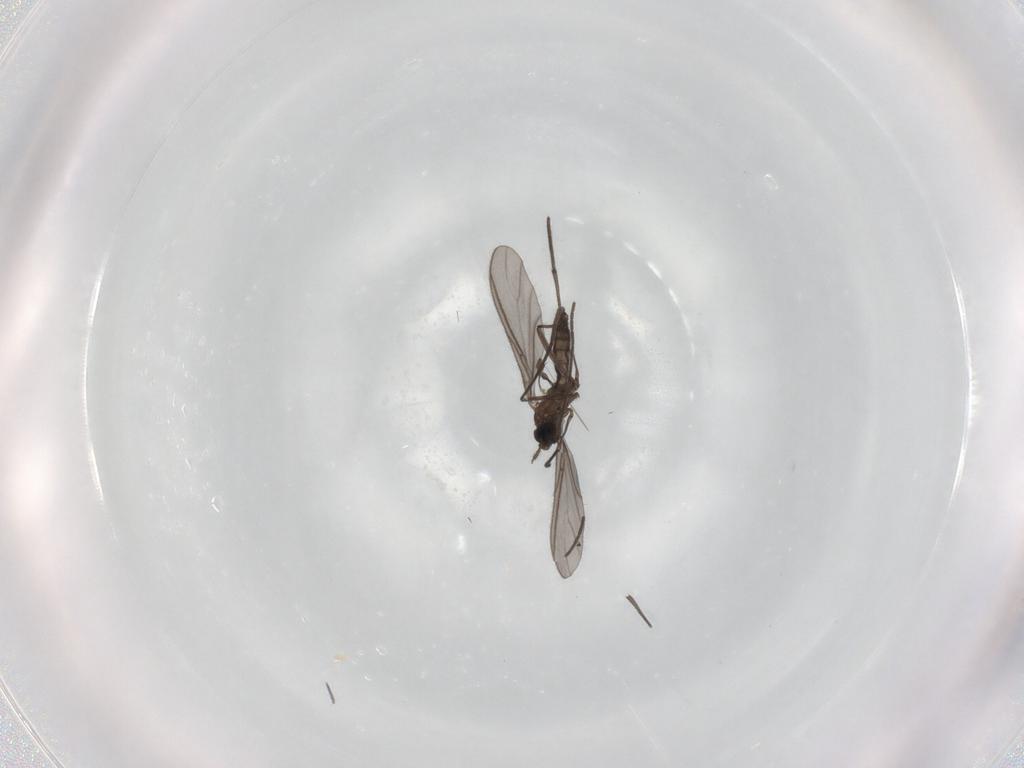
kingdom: Animalia
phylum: Arthropoda
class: Insecta
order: Diptera
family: Sciaridae
